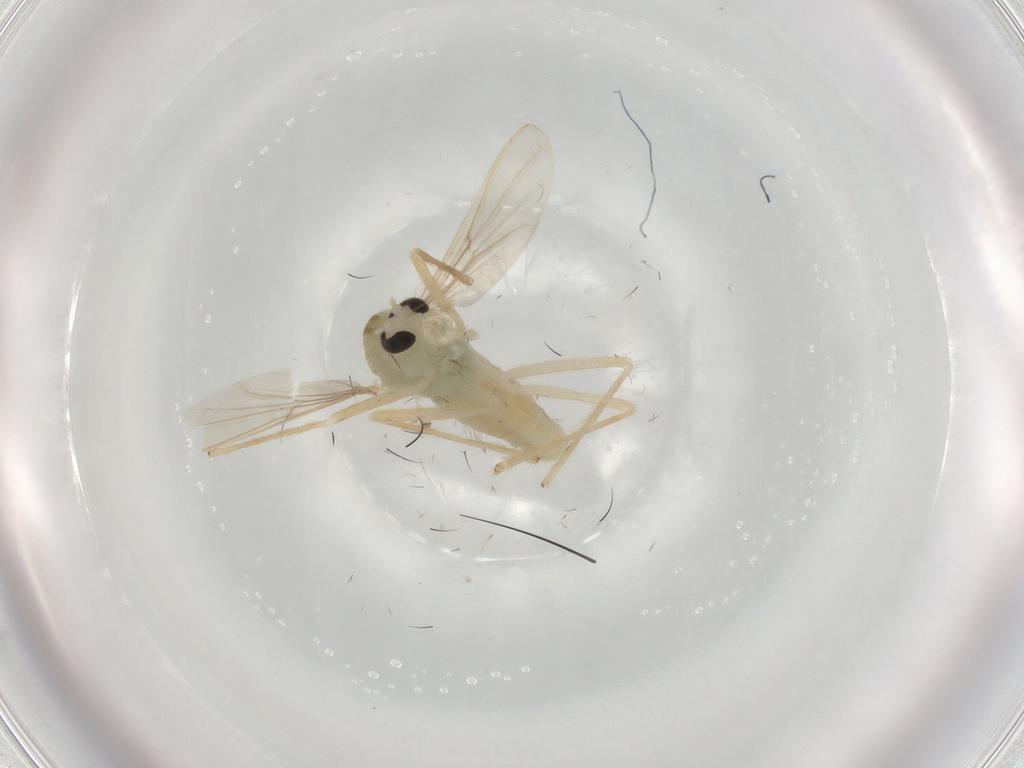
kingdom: Animalia
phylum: Arthropoda
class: Insecta
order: Diptera
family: Chironomidae
